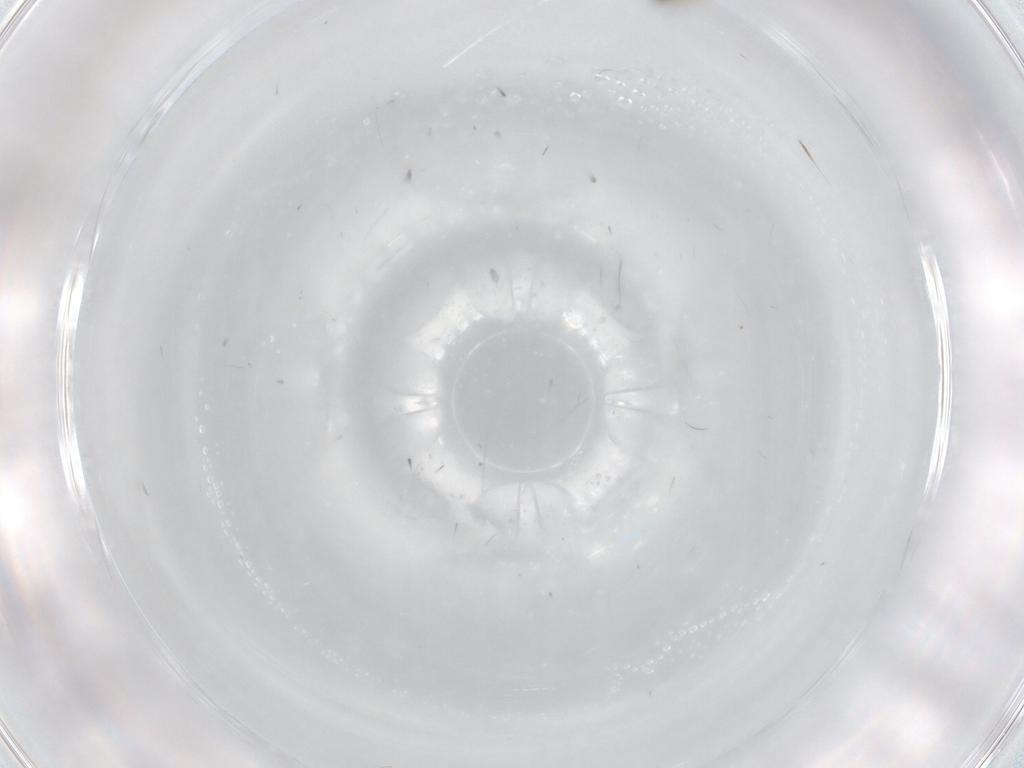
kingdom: Animalia
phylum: Arthropoda
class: Insecta
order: Diptera
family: Cecidomyiidae
